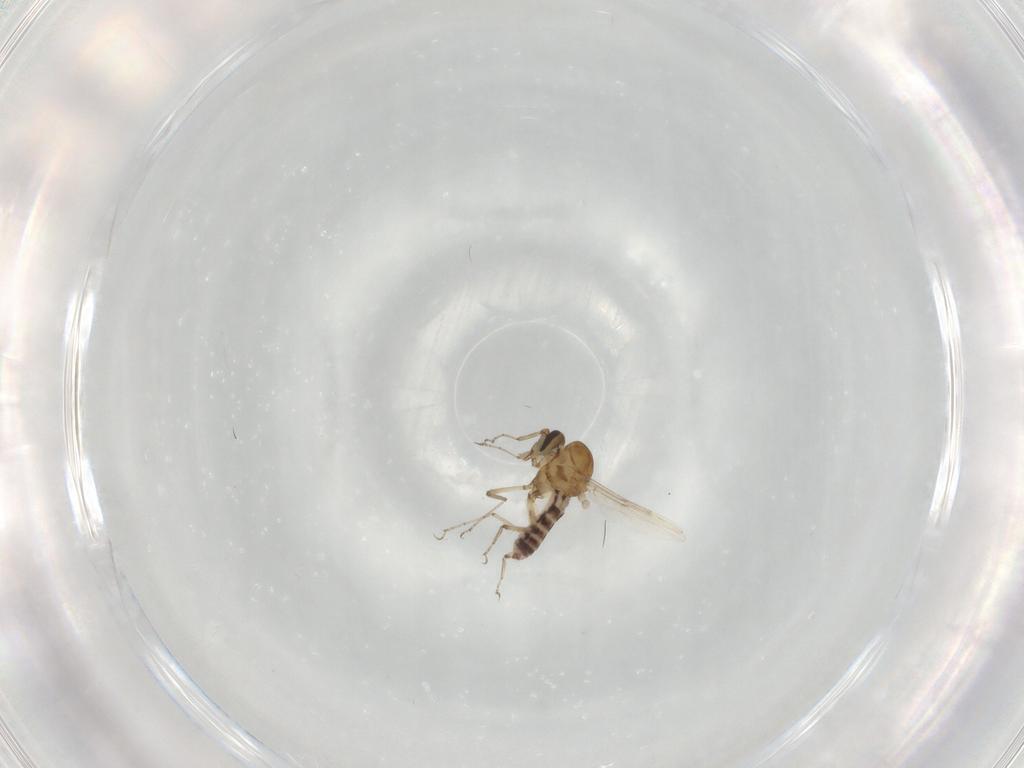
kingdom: Animalia
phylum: Arthropoda
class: Insecta
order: Diptera
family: Ceratopogonidae
